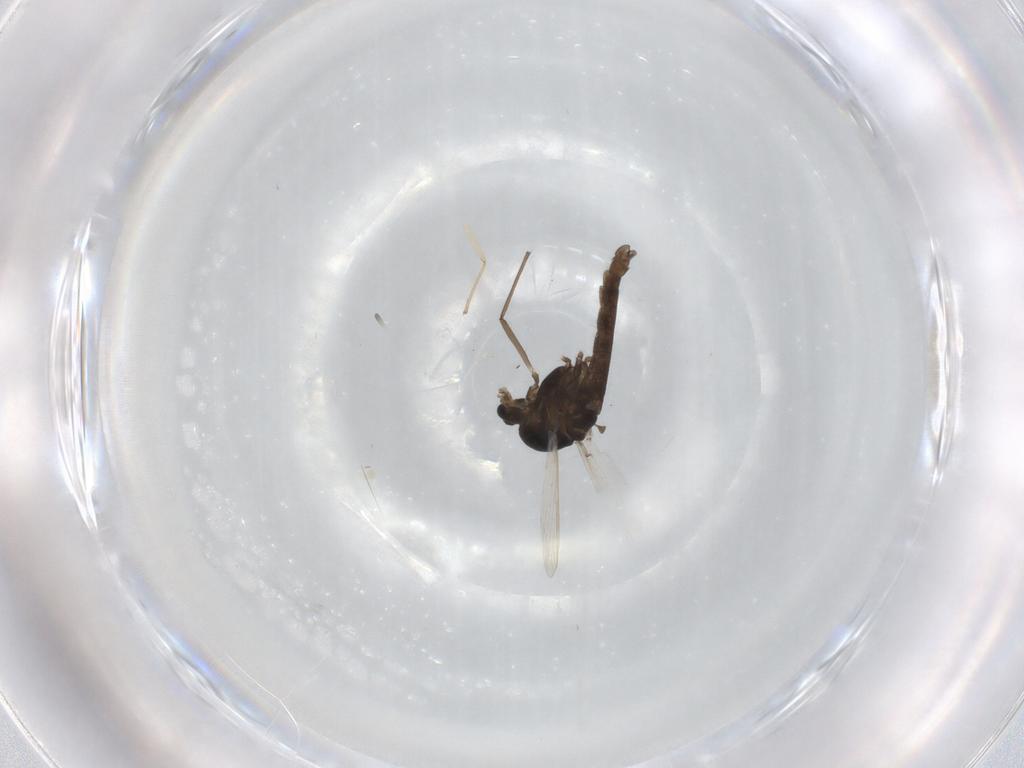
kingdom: Animalia
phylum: Arthropoda
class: Insecta
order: Diptera
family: Chironomidae
